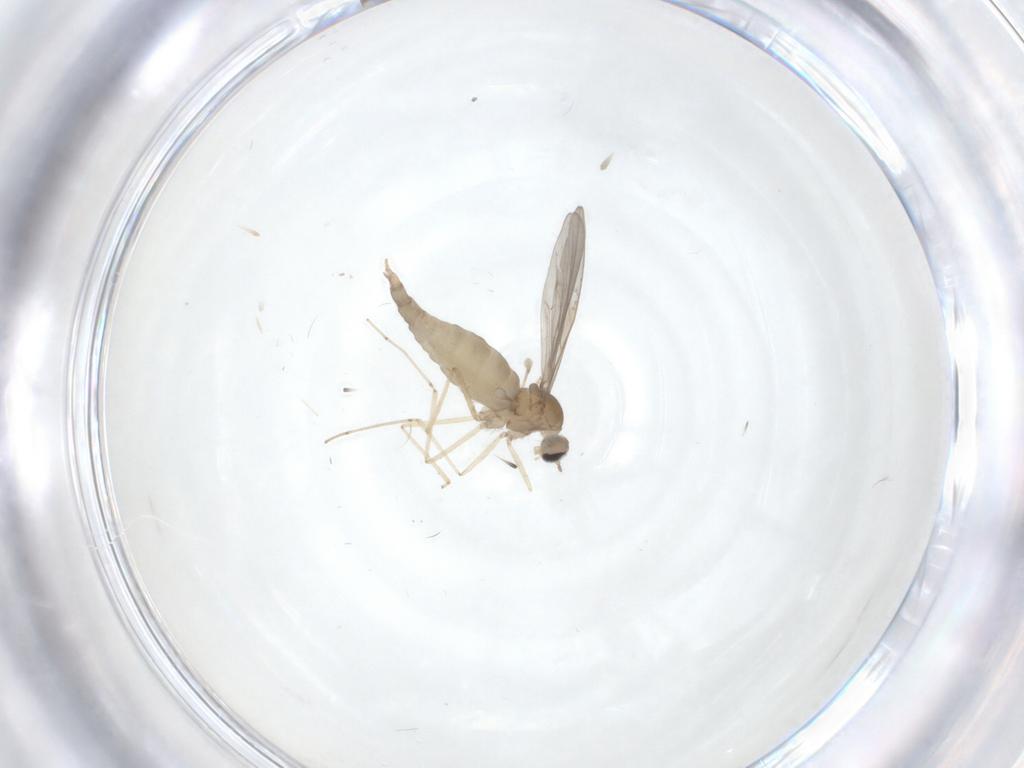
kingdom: Animalia
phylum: Arthropoda
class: Insecta
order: Diptera
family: Cecidomyiidae
